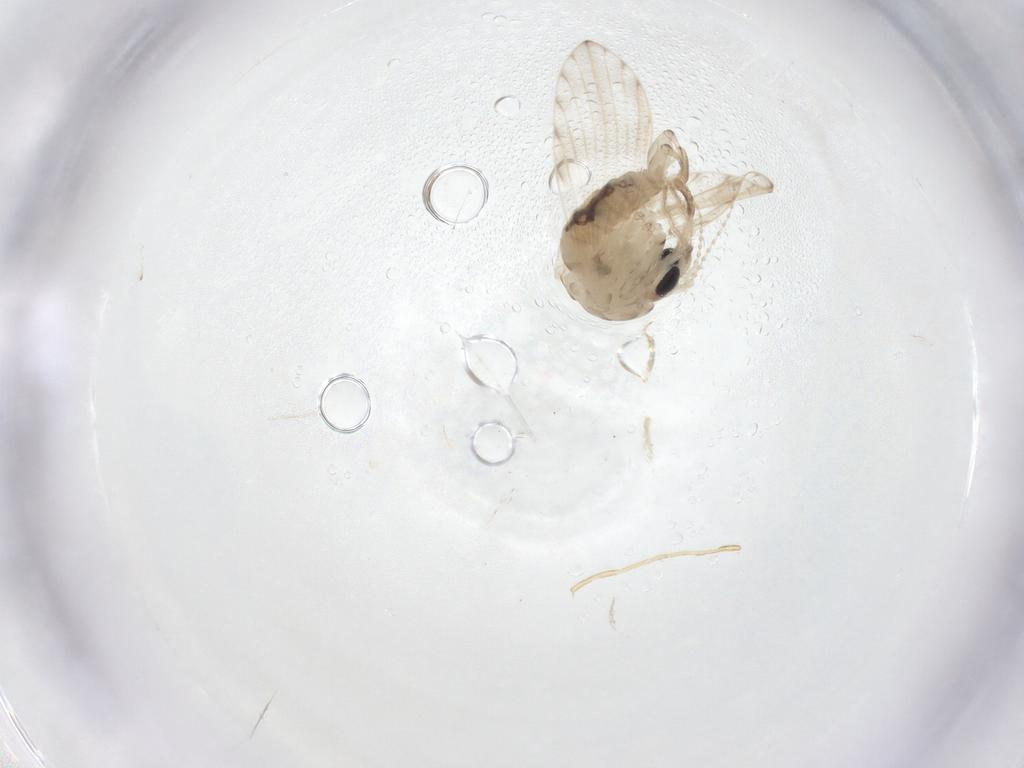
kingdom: Animalia
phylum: Arthropoda
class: Insecta
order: Diptera
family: Psychodidae
